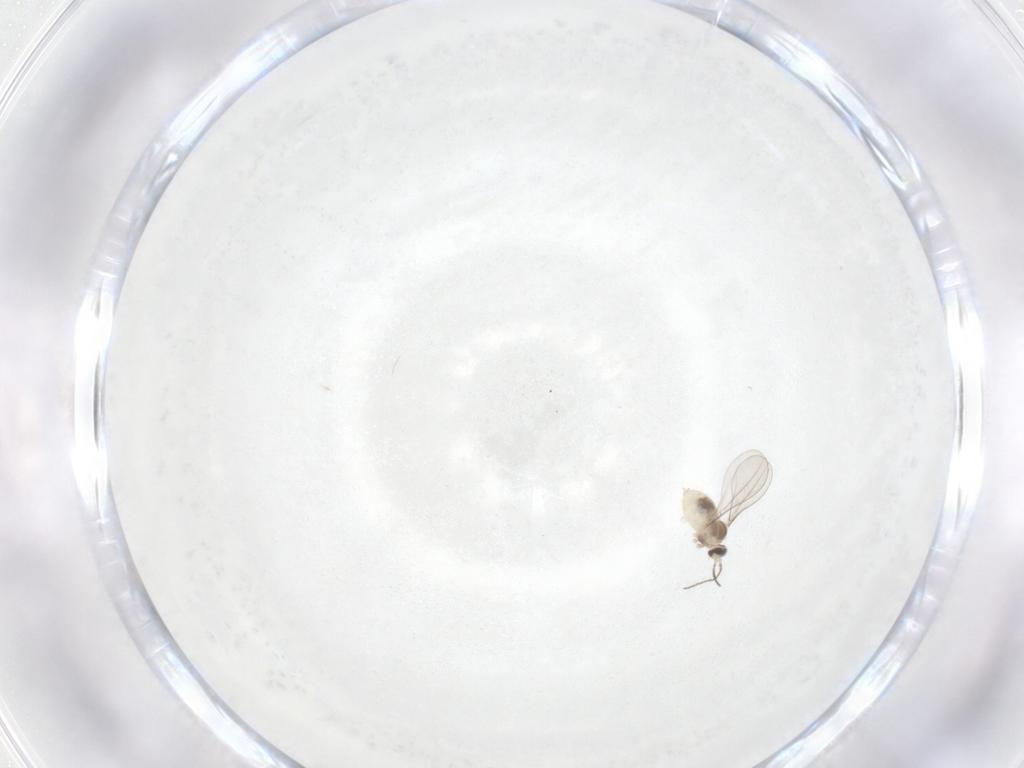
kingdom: Animalia
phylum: Arthropoda
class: Insecta
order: Diptera
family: Cecidomyiidae
